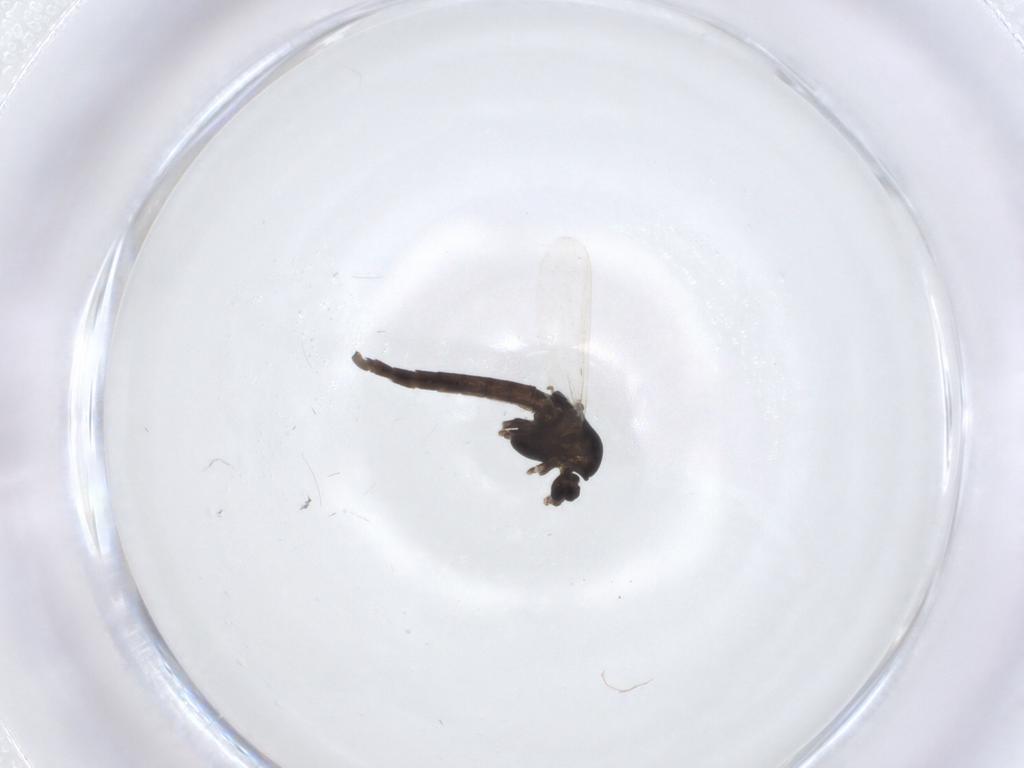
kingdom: Animalia
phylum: Arthropoda
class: Insecta
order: Diptera
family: Chironomidae
